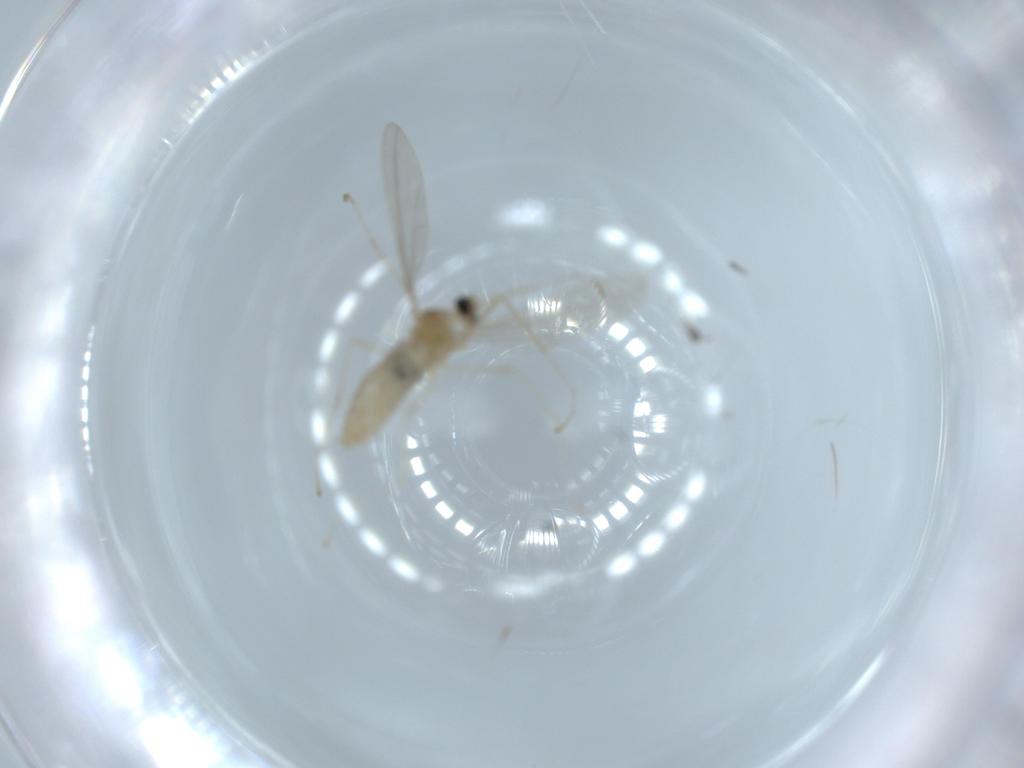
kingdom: Animalia
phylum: Arthropoda
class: Insecta
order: Diptera
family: Cecidomyiidae
